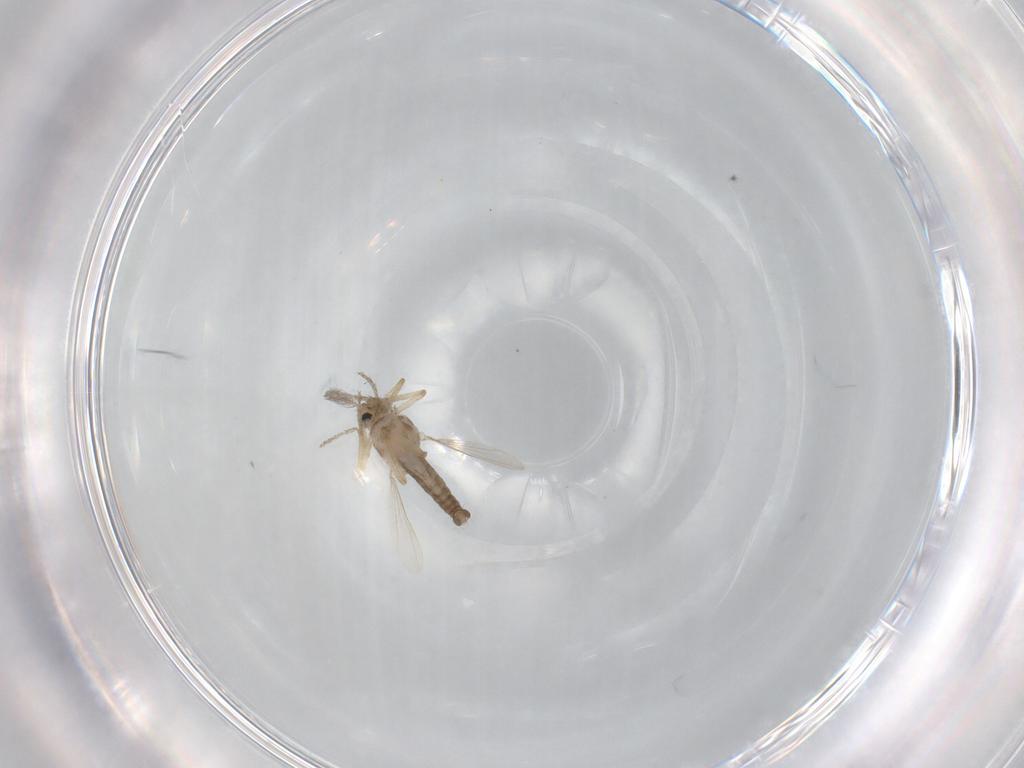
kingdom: Animalia
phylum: Arthropoda
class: Insecta
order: Diptera
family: Ceratopogonidae
